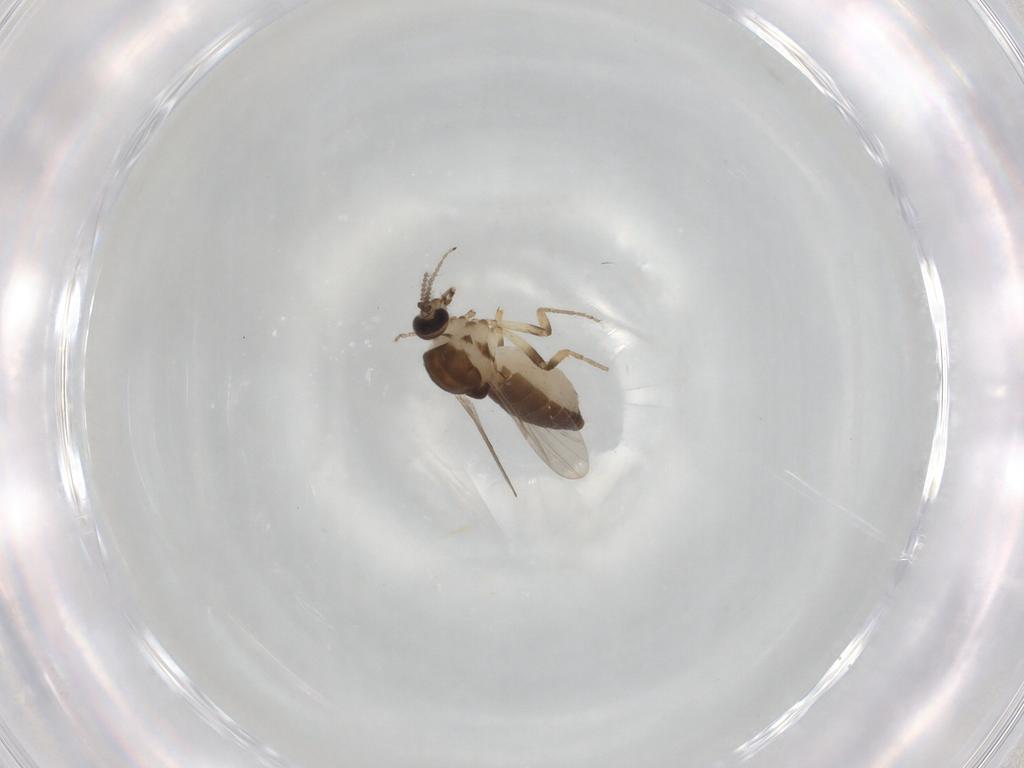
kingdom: Animalia
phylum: Arthropoda
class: Insecta
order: Diptera
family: Ceratopogonidae
